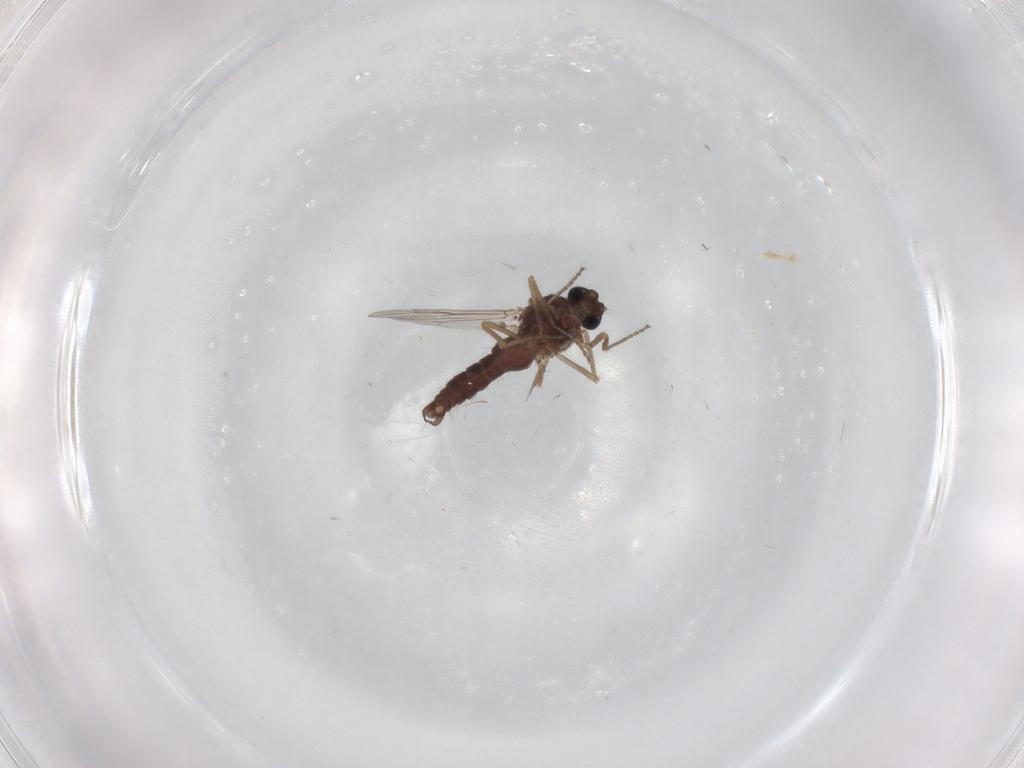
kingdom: Animalia
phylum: Arthropoda
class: Insecta
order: Diptera
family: Ceratopogonidae
